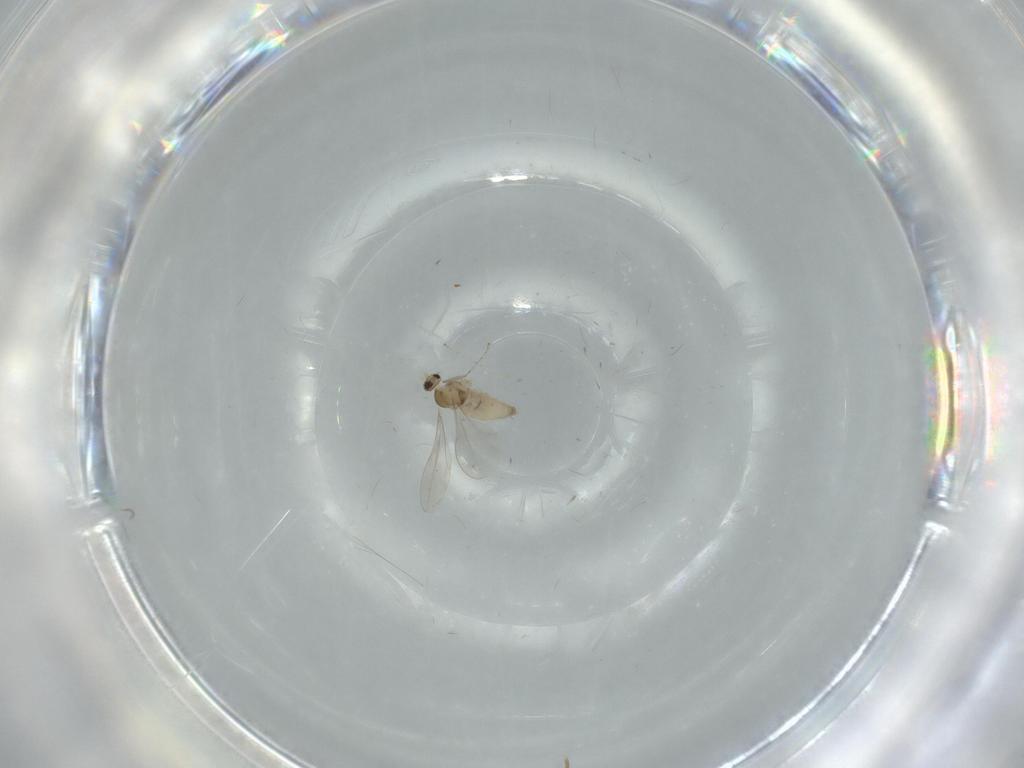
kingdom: Animalia
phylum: Arthropoda
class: Insecta
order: Diptera
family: Cecidomyiidae
